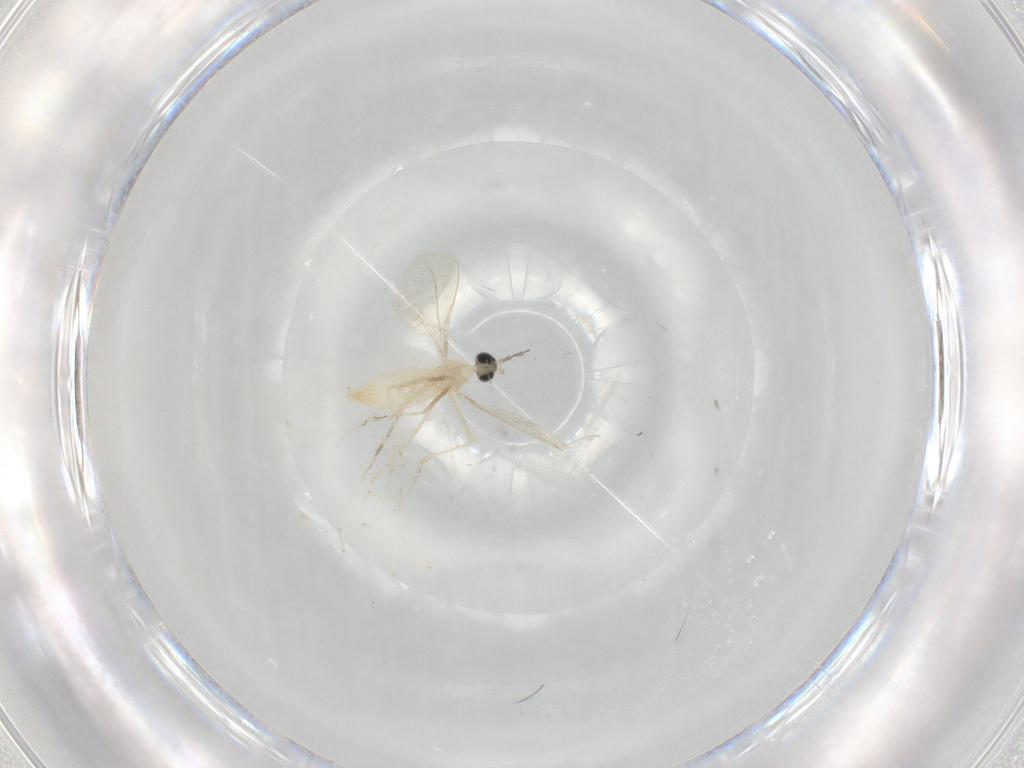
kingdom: Animalia
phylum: Arthropoda
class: Insecta
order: Diptera
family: Cecidomyiidae
